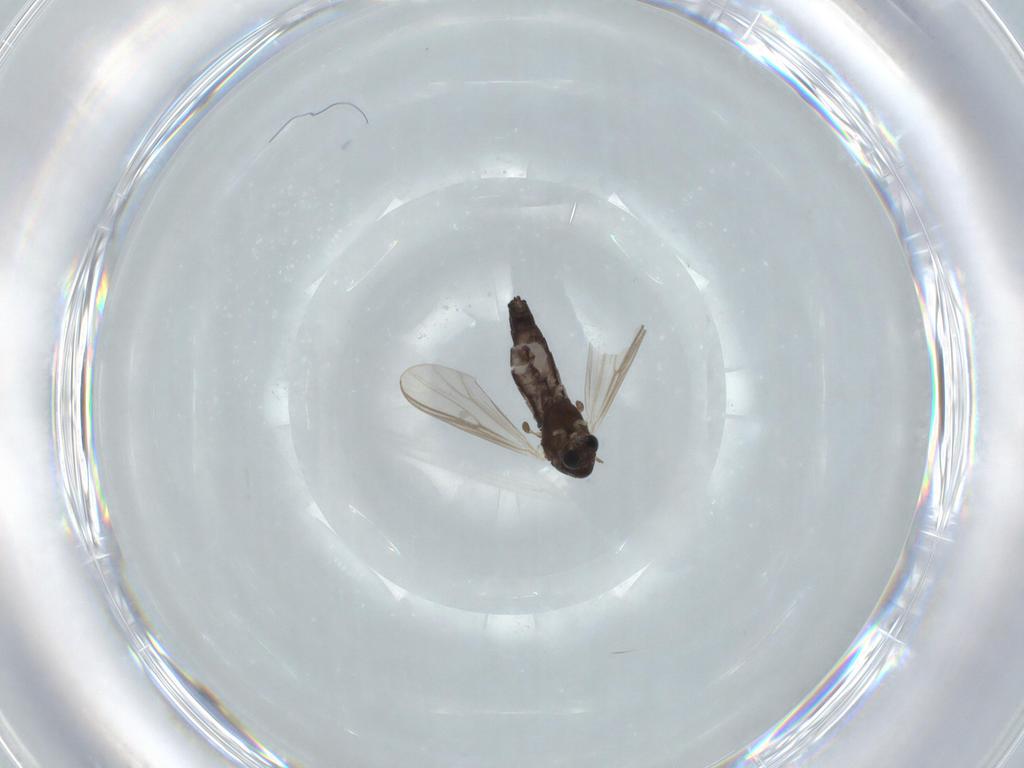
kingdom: Animalia
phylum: Arthropoda
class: Insecta
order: Diptera
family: Chironomidae
